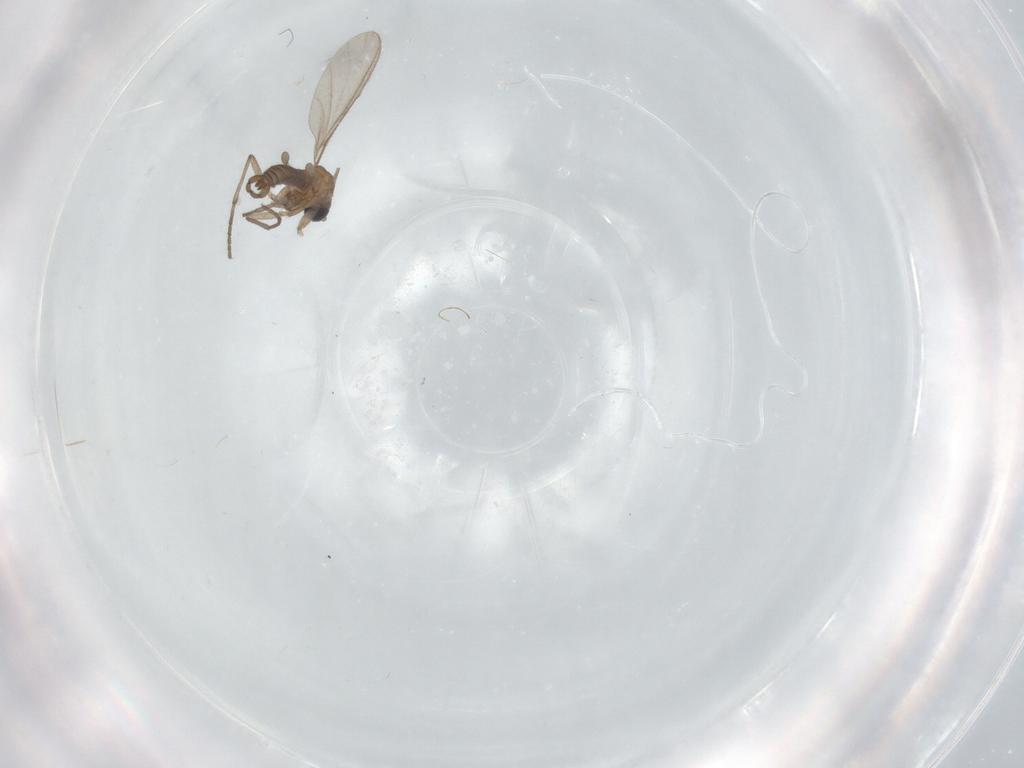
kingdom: Animalia
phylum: Arthropoda
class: Insecta
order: Diptera
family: Sciaridae
